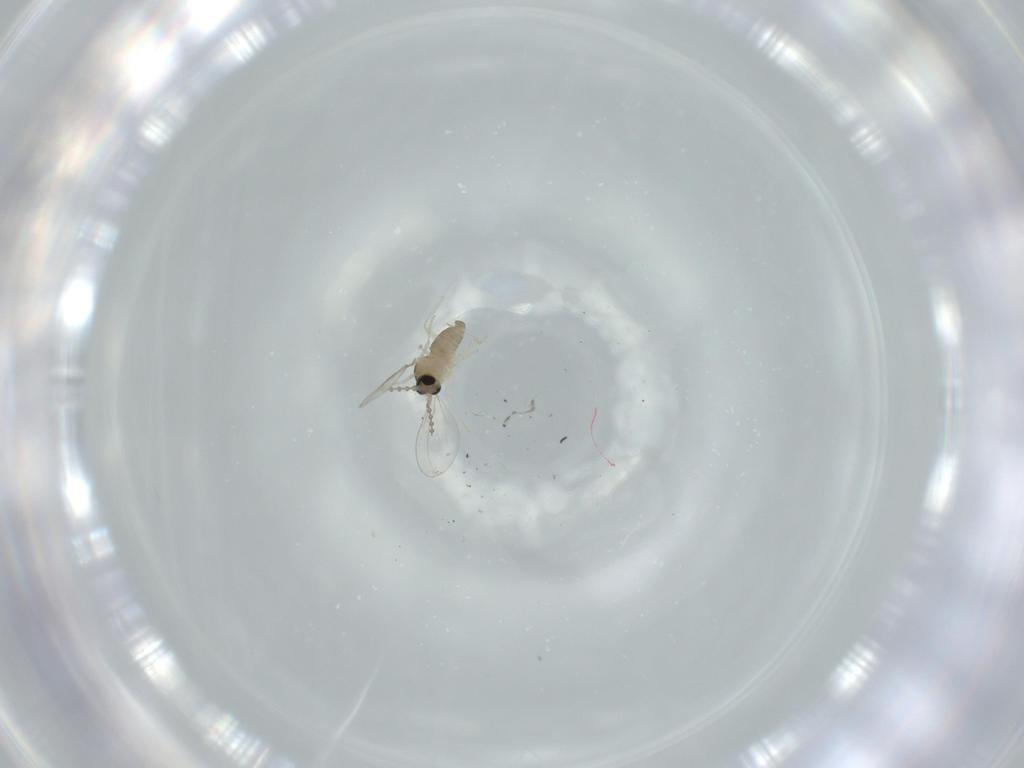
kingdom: Animalia
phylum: Arthropoda
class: Insecta
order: Diptera
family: Cecidomyiidae
